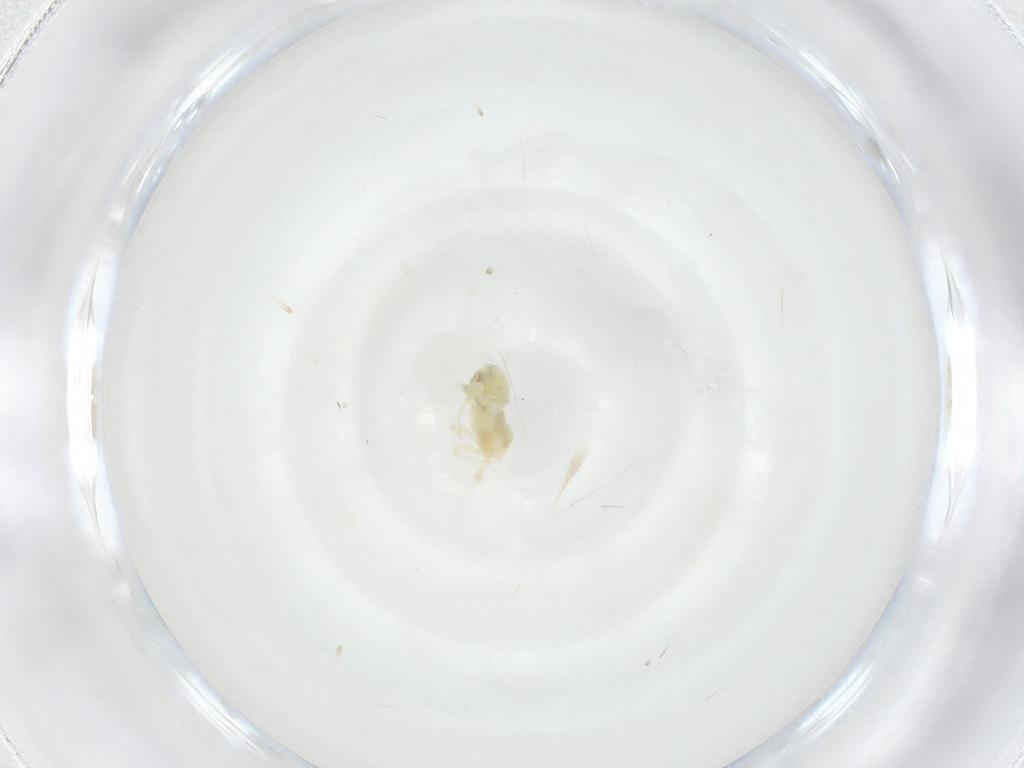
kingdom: Animalia
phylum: Arthropoda
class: Arachnida
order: Trombidiformes
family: Anystidae
